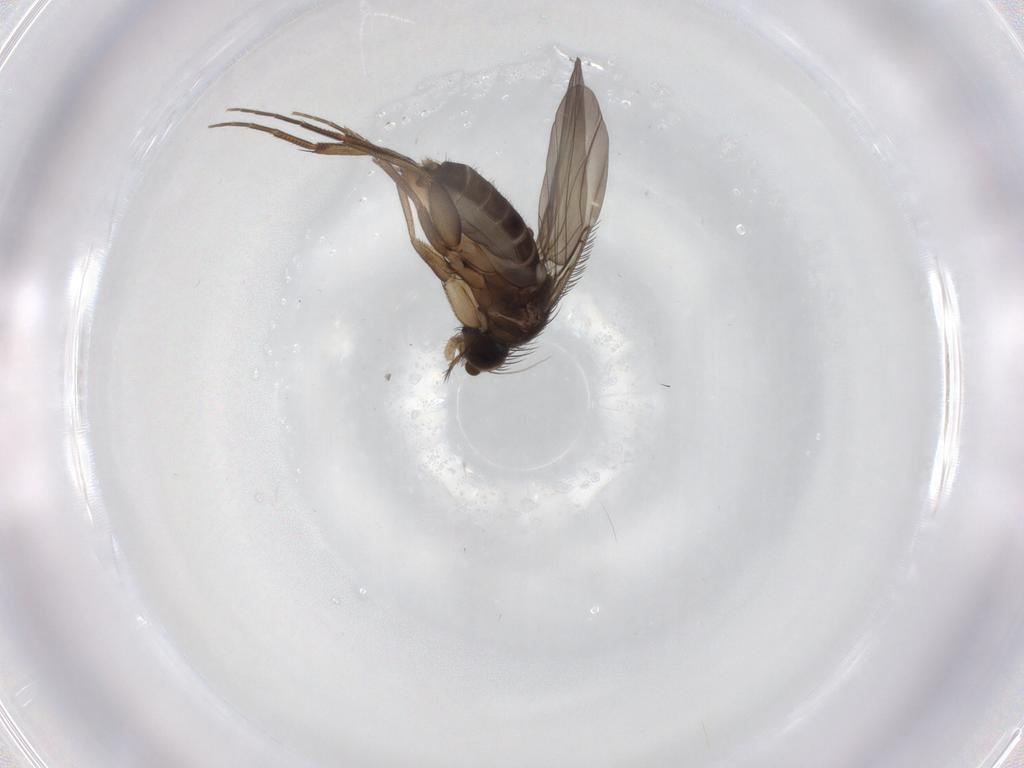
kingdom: Animalia
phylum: Arthropoda
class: Insecta
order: Diptera
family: Phoridae
